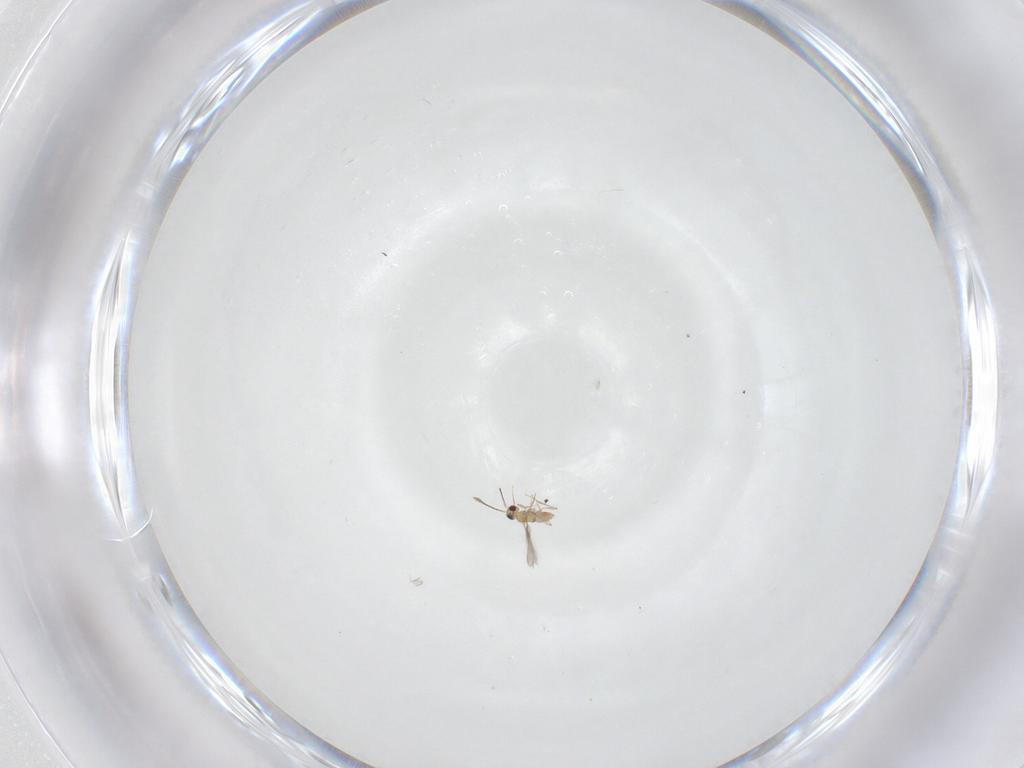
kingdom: Animalia
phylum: Arthropoda
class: Insecta
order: Hymenoptera
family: Mymaridae
